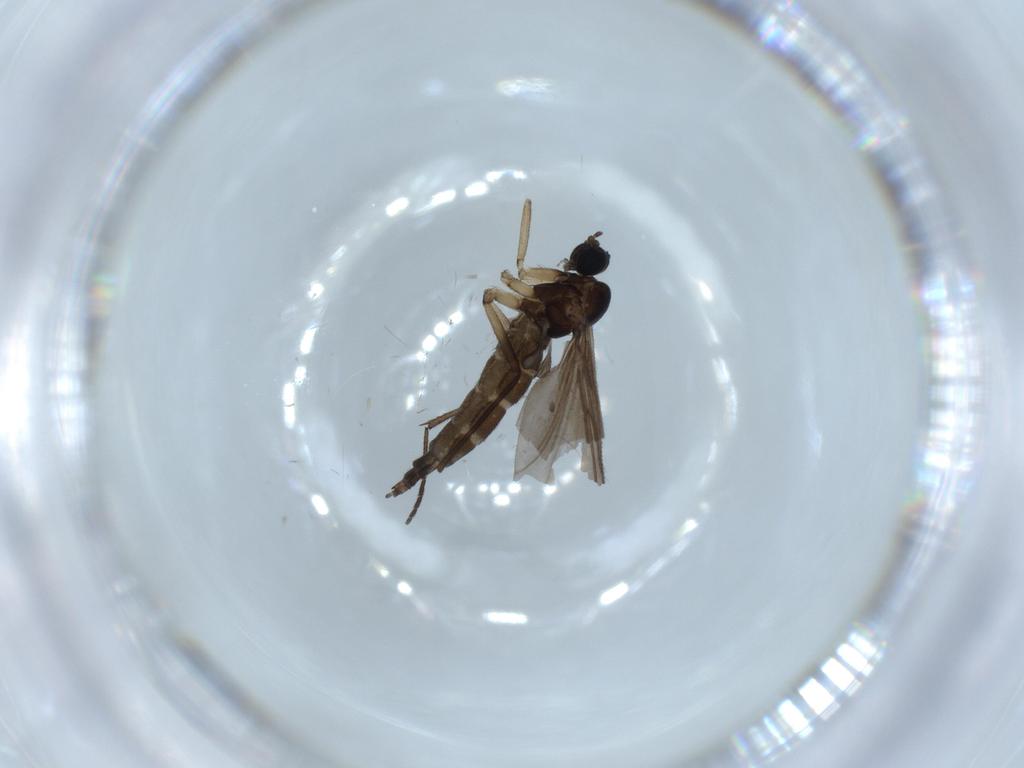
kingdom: Animalia
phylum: Arthropoda
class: Insecta
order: Diptera
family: Sciaridae
